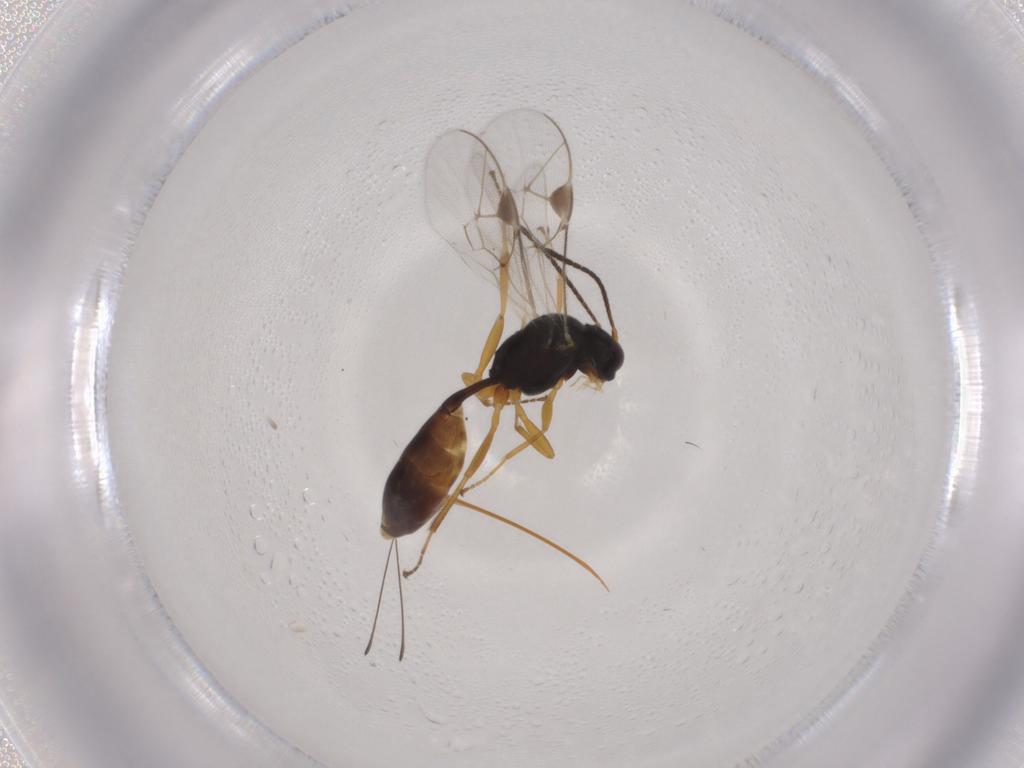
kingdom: Animalia
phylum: Arthropoda
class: Insecta
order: Hymenoptera
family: Ichneumonidae
